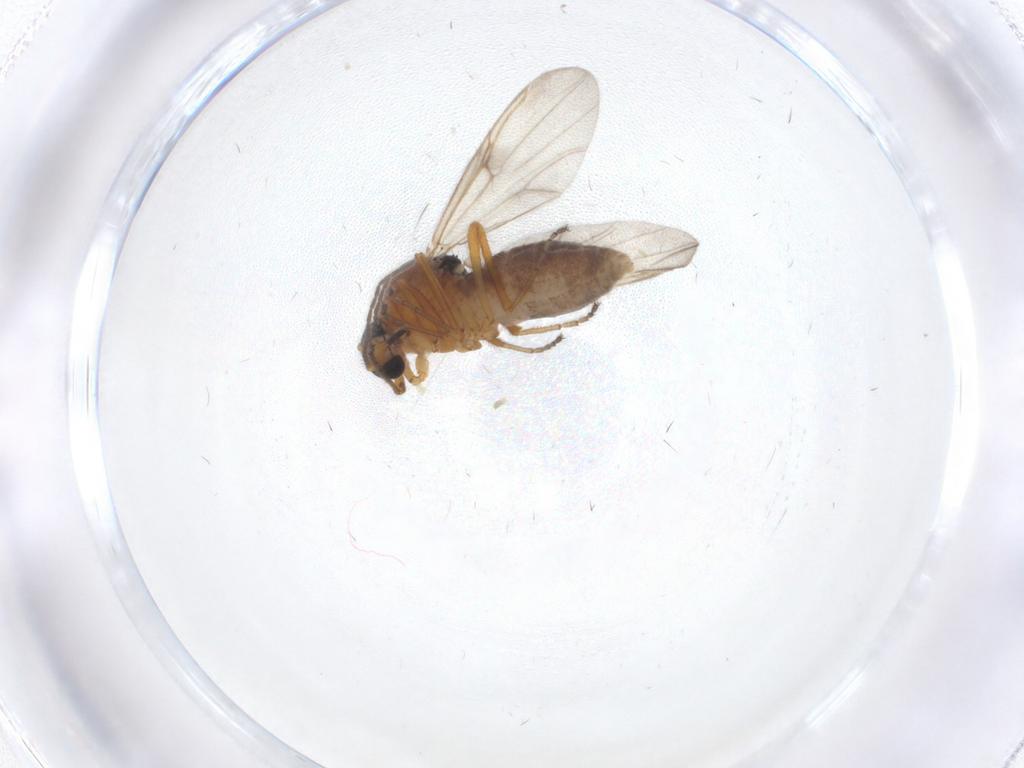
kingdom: Animalia
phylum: Arthropoda
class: Insecta
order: Diptera
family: Ceratopogonidae
